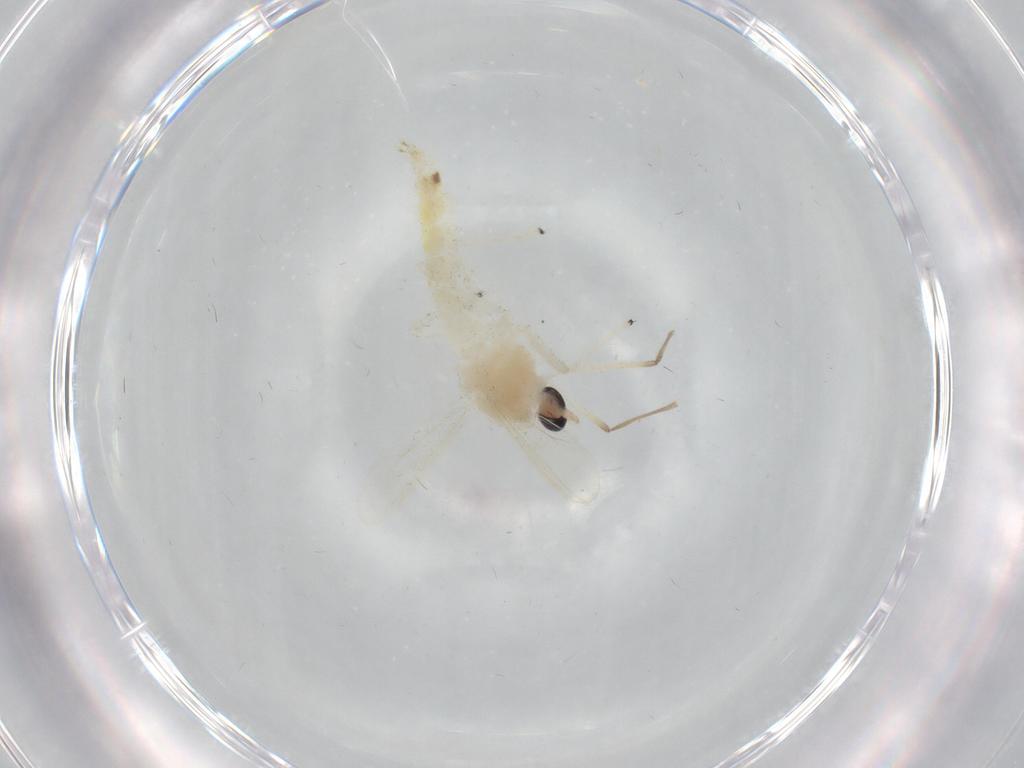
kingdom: Animalia
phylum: Arthropoda
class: Insecta
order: Diptera
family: Chironomidae
